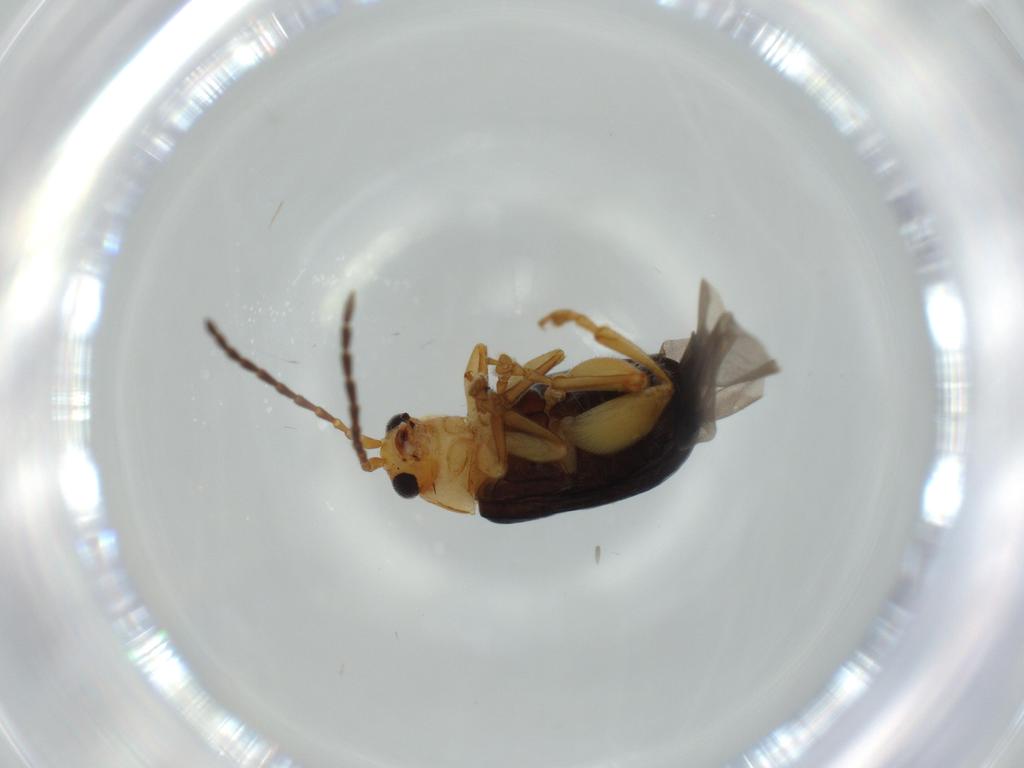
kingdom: Animalia
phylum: Arthropoda
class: Insecta
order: Coleoptera
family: Chrysomelidae
